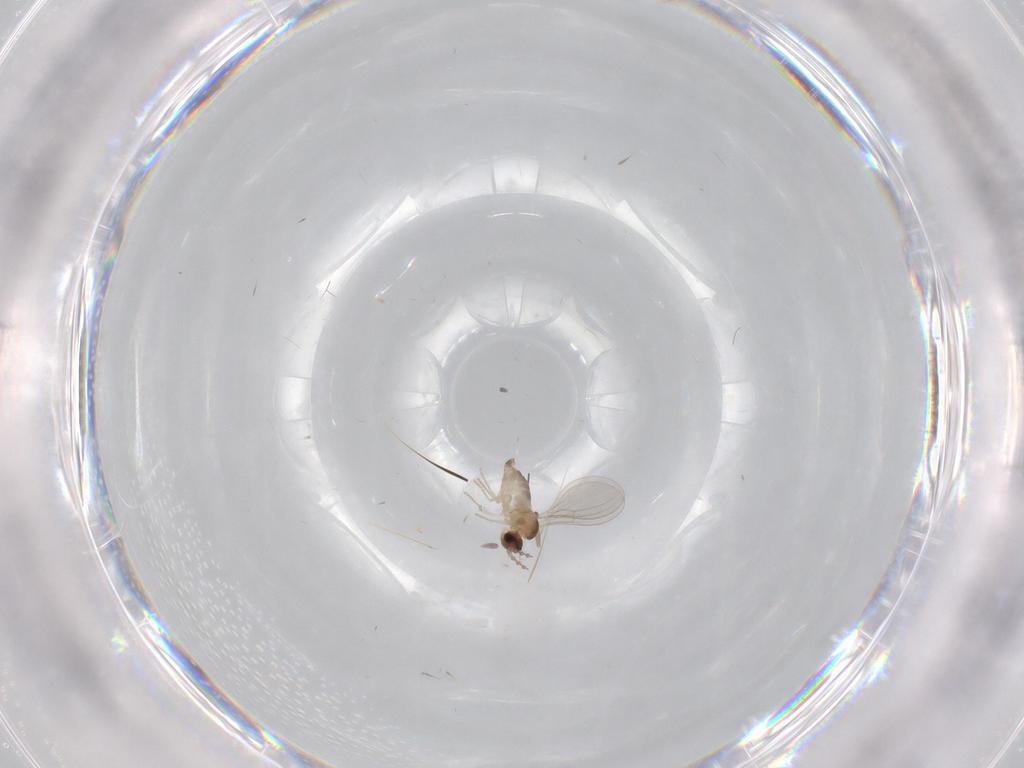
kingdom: Animalia
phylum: Arthropoda
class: Insecta
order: Diptera
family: Cecidomyiidae
